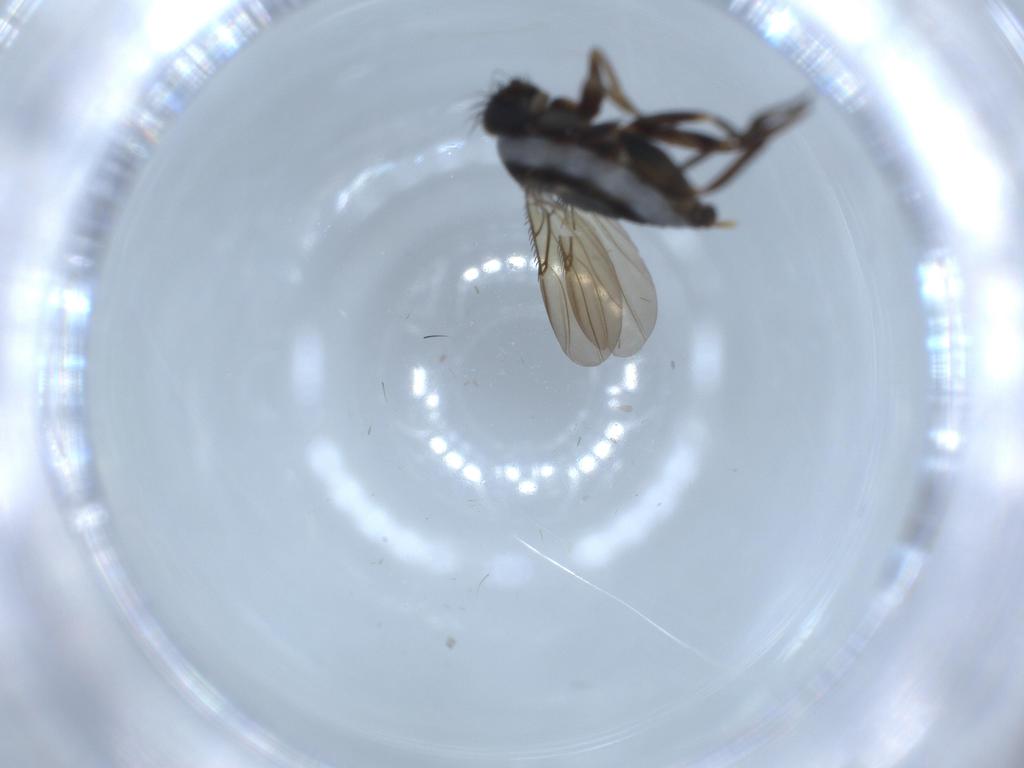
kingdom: Animalia
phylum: Arthropoda
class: Insecta
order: Diptera
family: Phoridae
